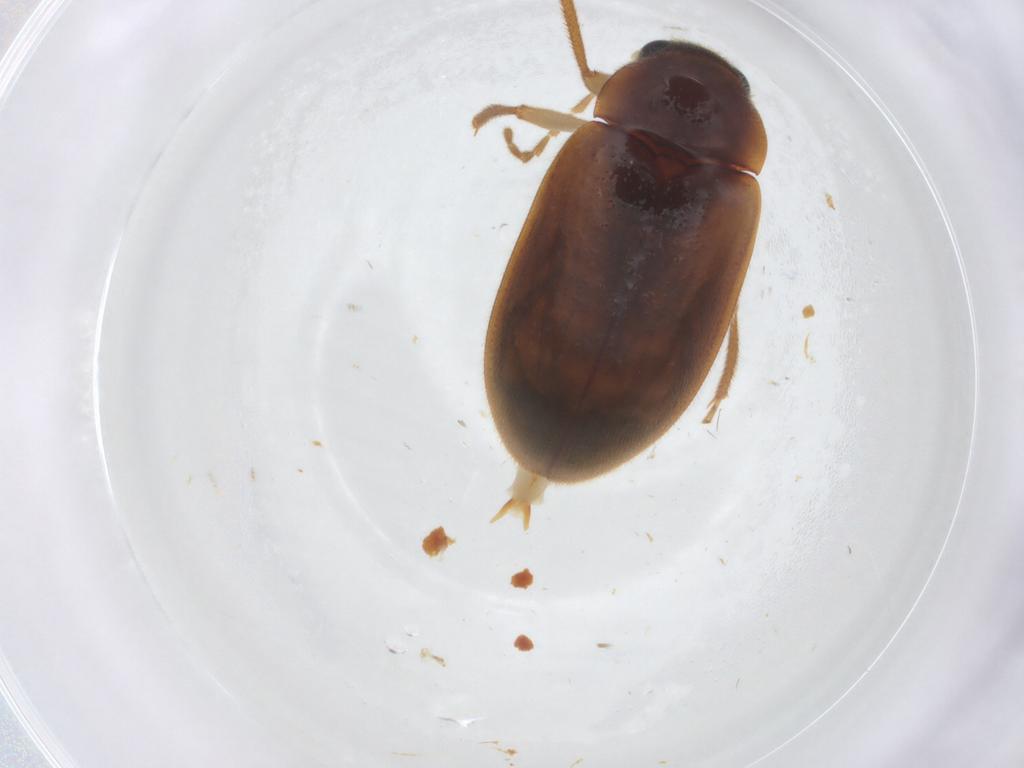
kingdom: Animalia
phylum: Arthropoda
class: Insecta
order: Coleoptera
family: Ptilodactylidae
